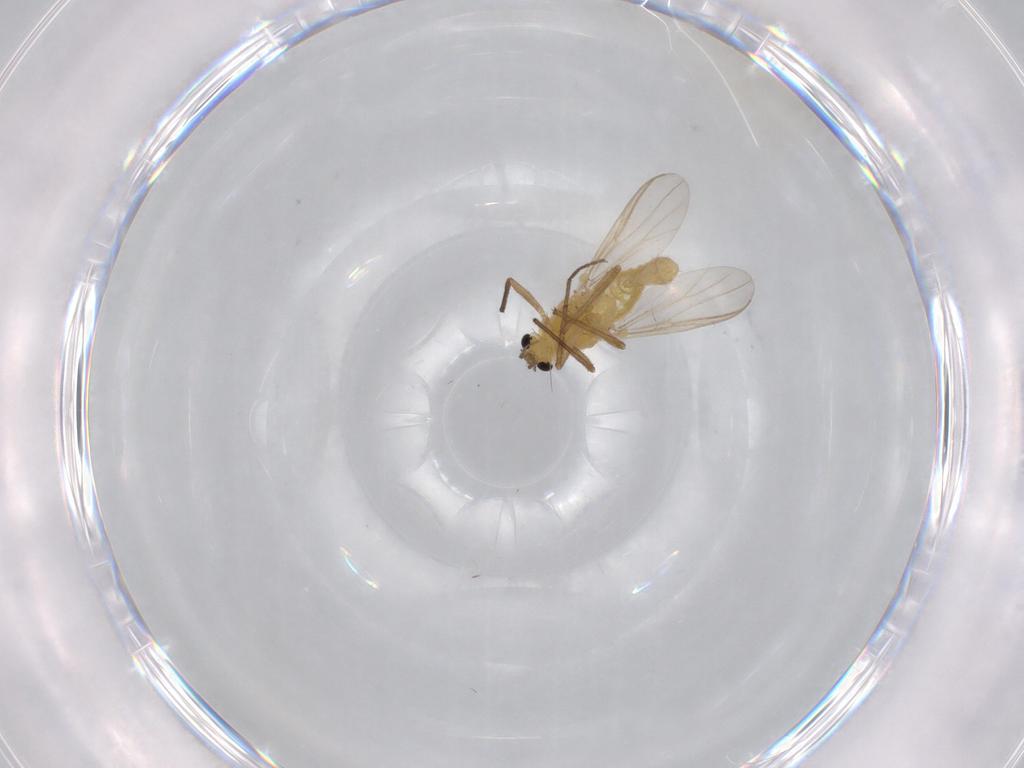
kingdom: Animalia
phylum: Arthropoda
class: Insecta
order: Diptera
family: Chironomidae
